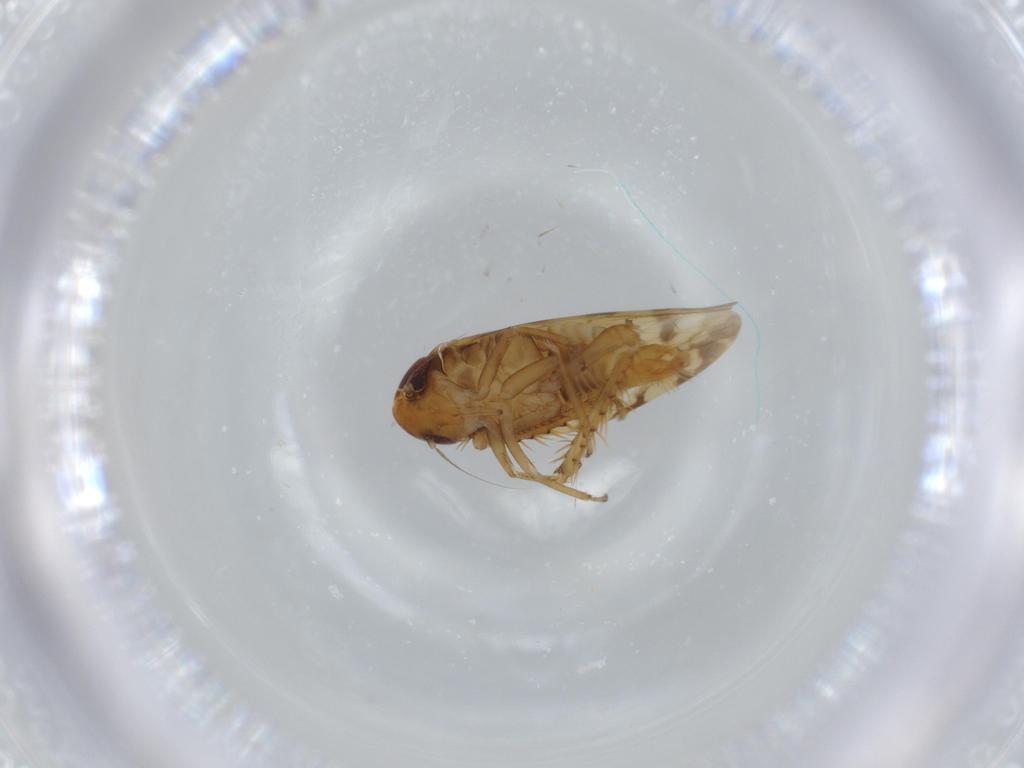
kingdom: Animalia
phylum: Arthropoda
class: Insecta
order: Hemiptera
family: Cicadellidae
